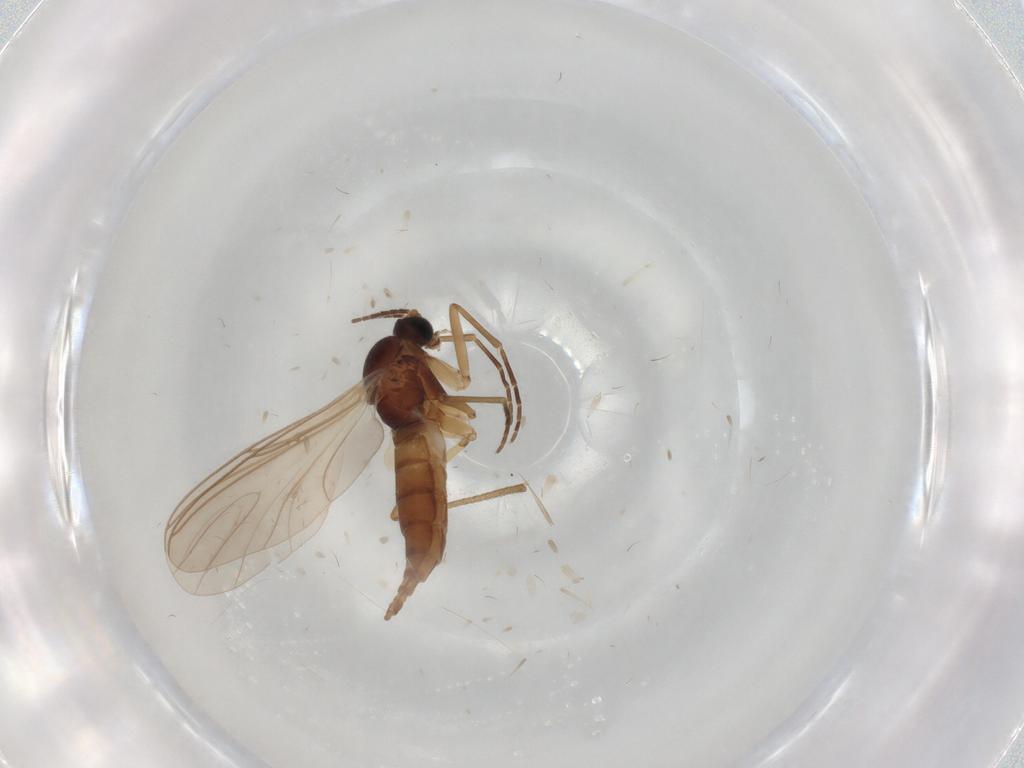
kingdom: Animalia
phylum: Arthropoda
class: Insecta
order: Diptera
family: Sciaridae
